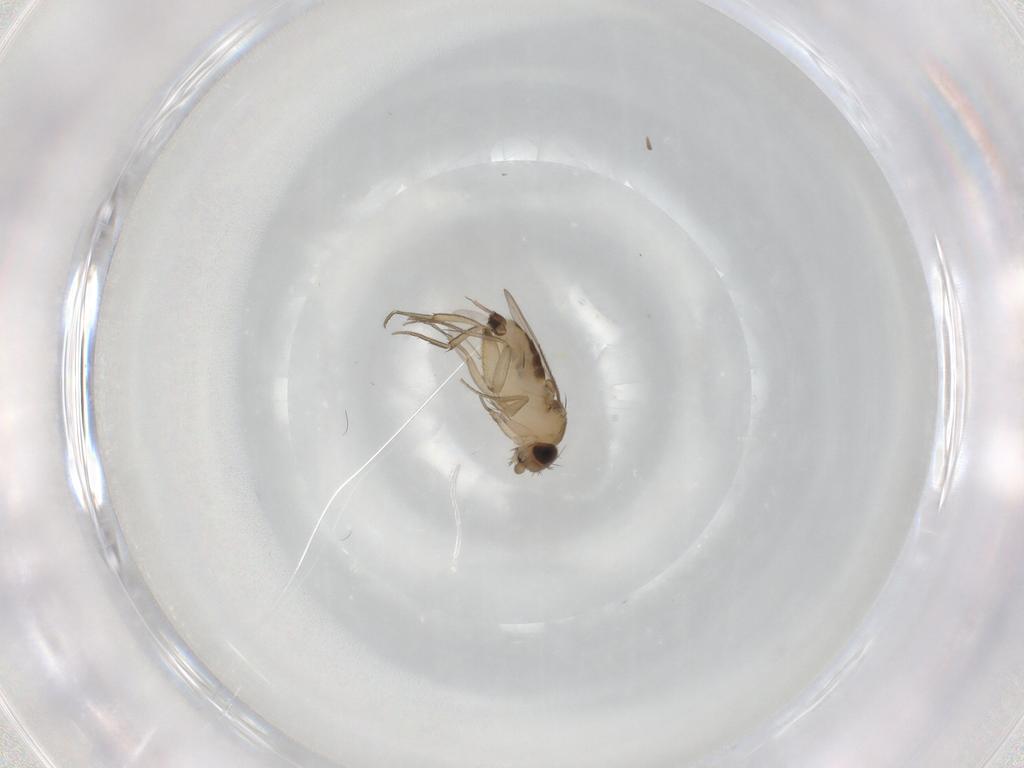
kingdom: Animalia
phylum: Arthropoda
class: Insecta
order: Diptera
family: Phoridae
